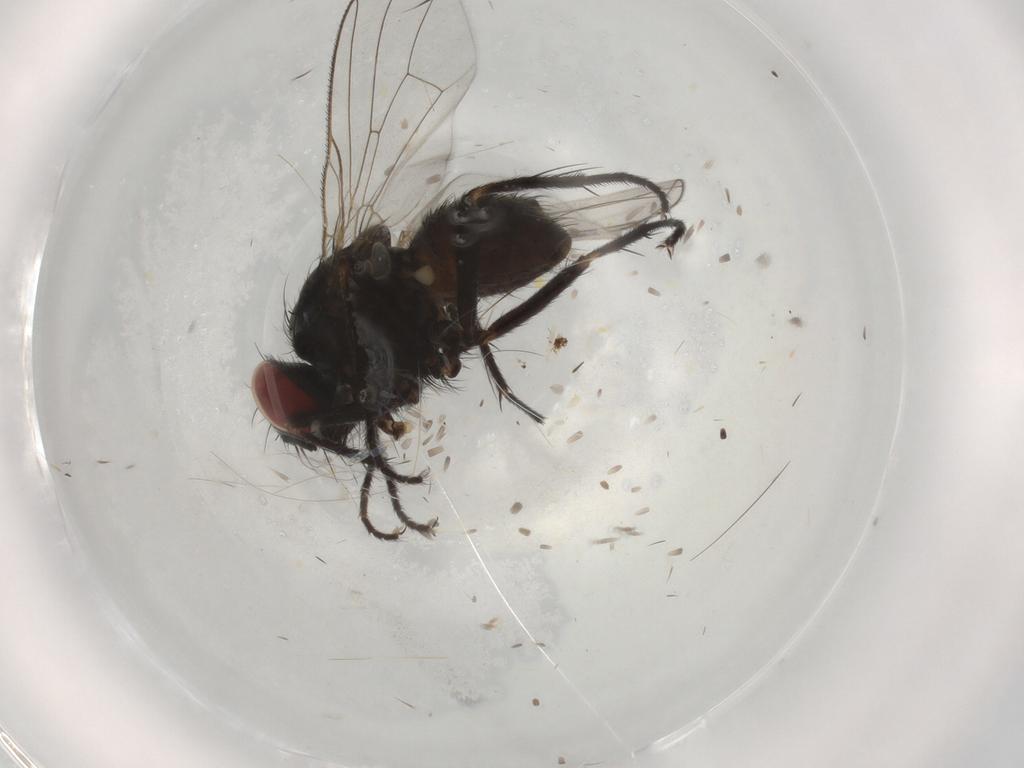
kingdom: Animalia
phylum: Arthropoda
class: Insecta
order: Diptera
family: Muscidae
